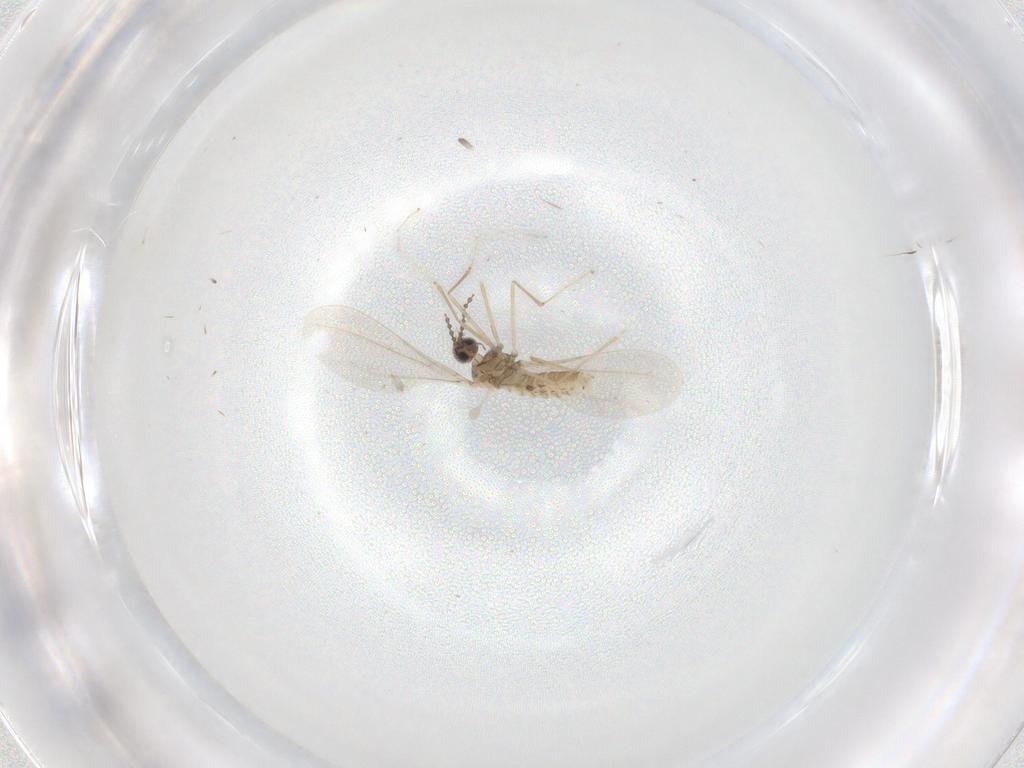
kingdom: Animalia
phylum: Arthropoda
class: Insecta
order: Diptera
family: Cecidomyiidae
